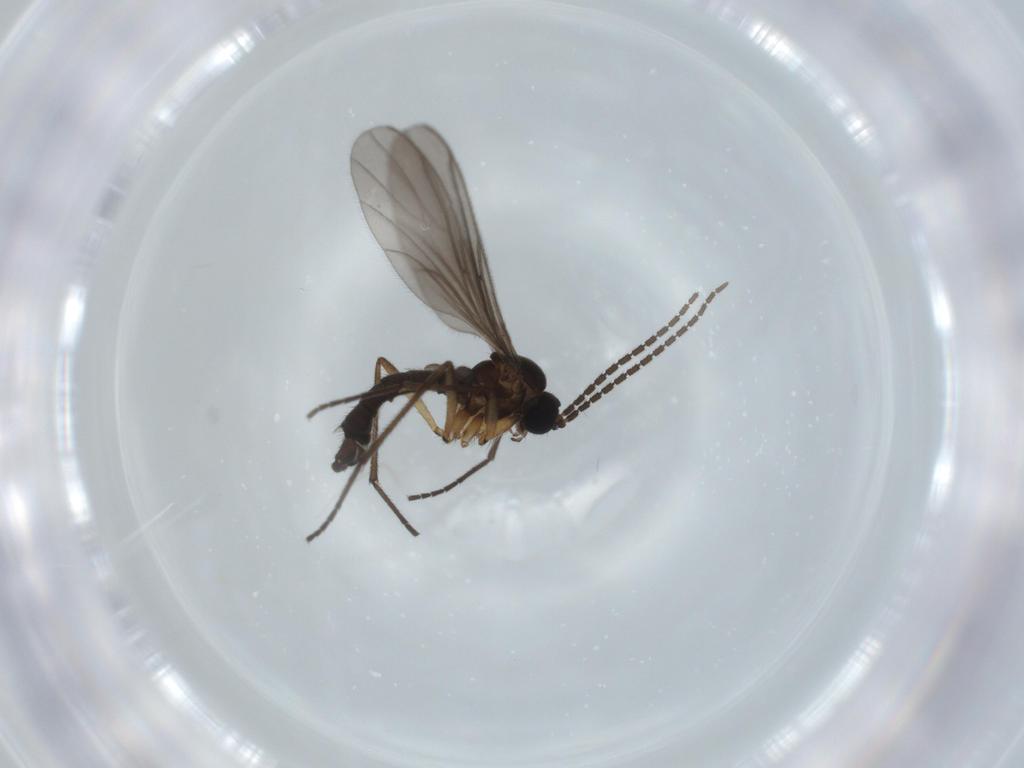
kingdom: Animalia
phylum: Arthropoda
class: Insecta
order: Diptera
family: Sciaridae
